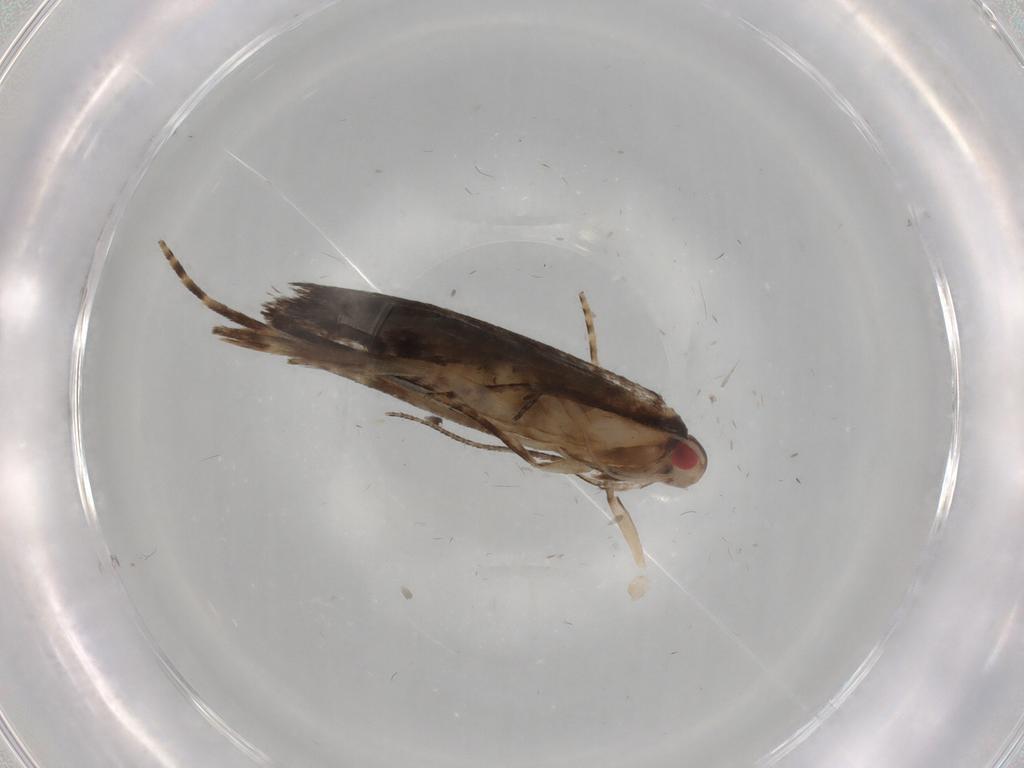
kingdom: Animalia
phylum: Arthropoda
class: Insecta
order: Lepidoptera
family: Gelechiidae
